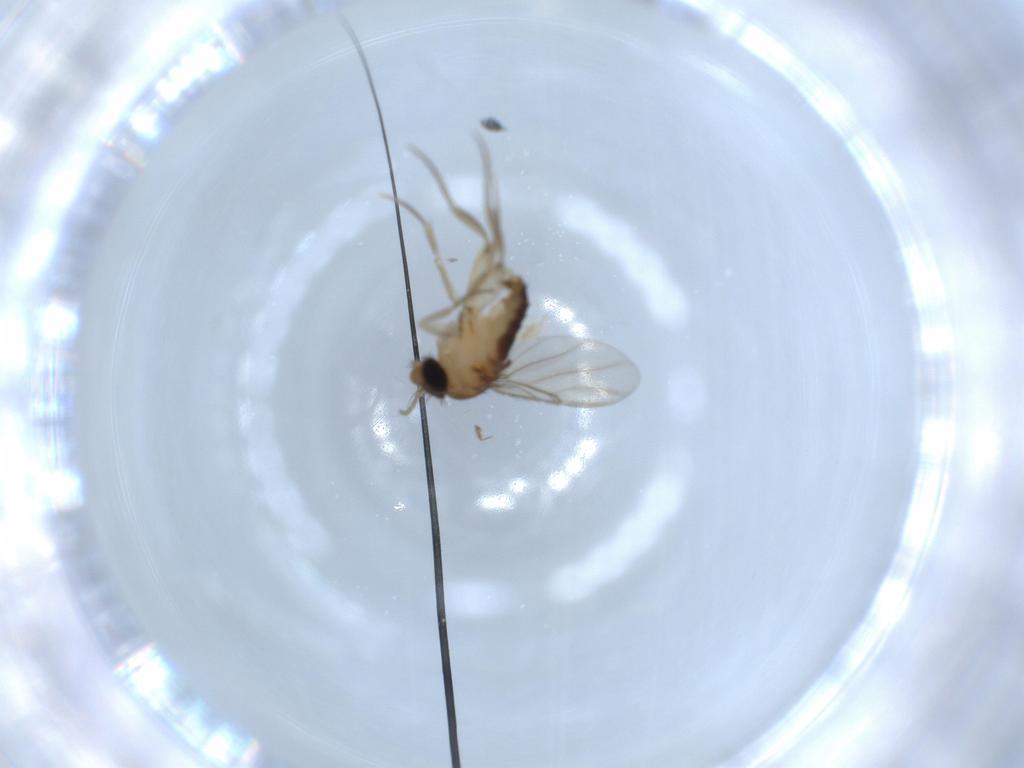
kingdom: Animalia
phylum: Arthropoda
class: Insecta
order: Diptera
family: Phoridae
